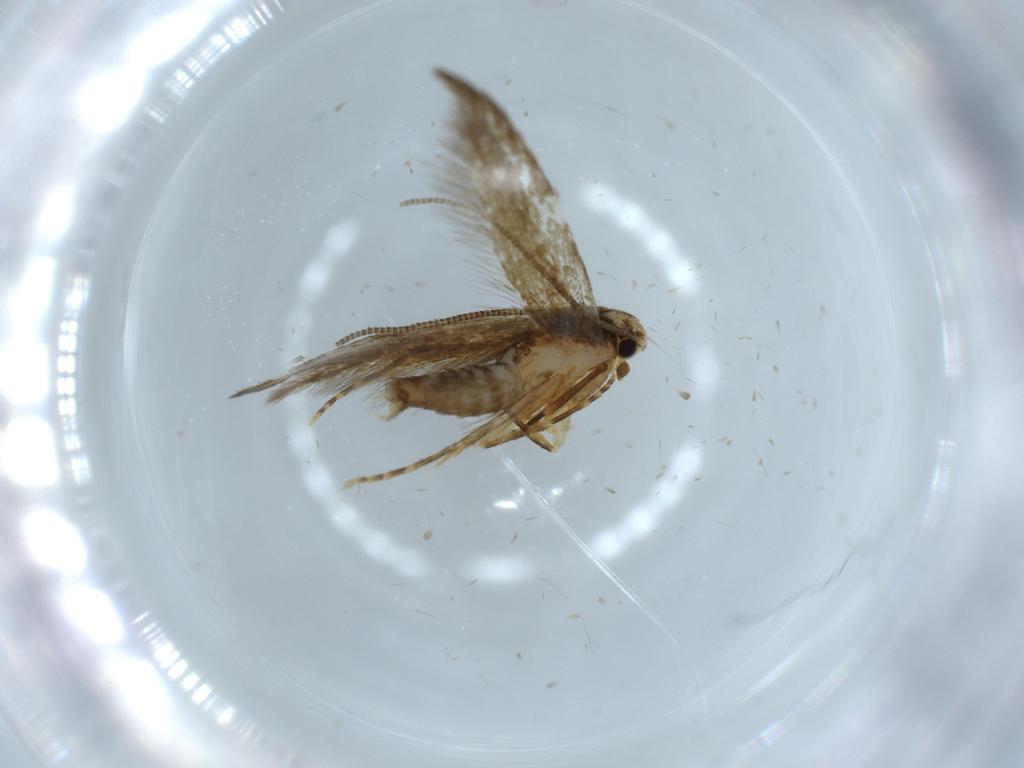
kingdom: Animalia
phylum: Arthropoda
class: Insecta
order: Lepidoptera
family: Tineidae
